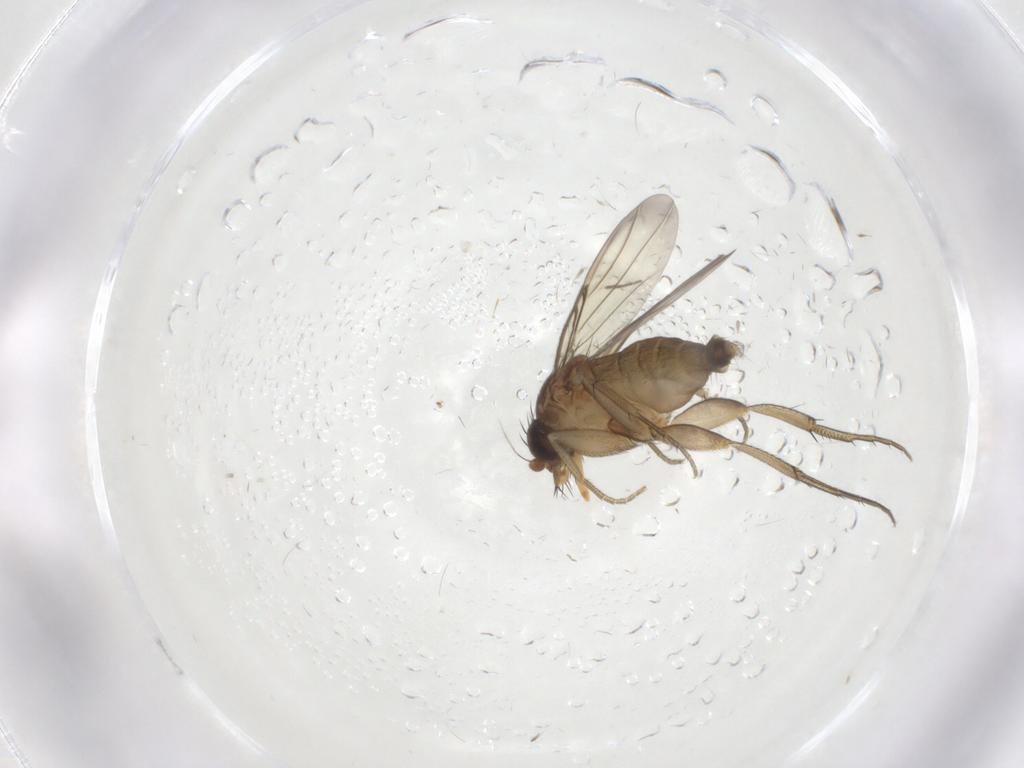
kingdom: Animalia
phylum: Arthropoda
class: Insecta
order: Diptera
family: Phoridae
